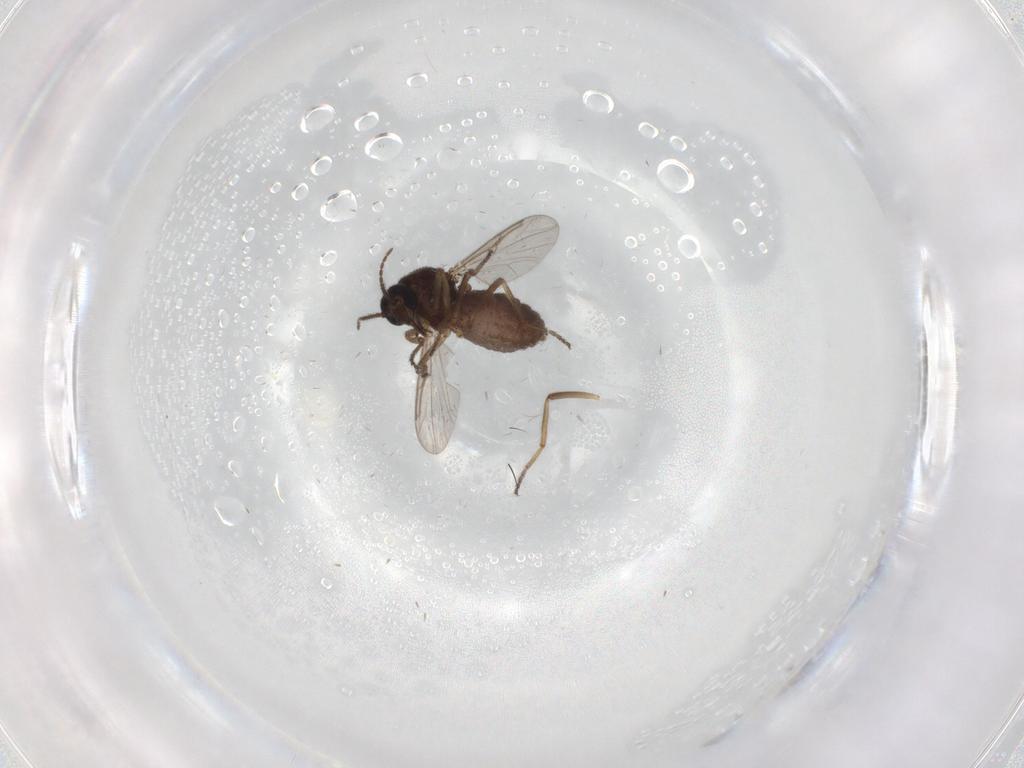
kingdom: Animalia
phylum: Arthropoda
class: Insecta
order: Diptera
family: Ceratopogonidae
